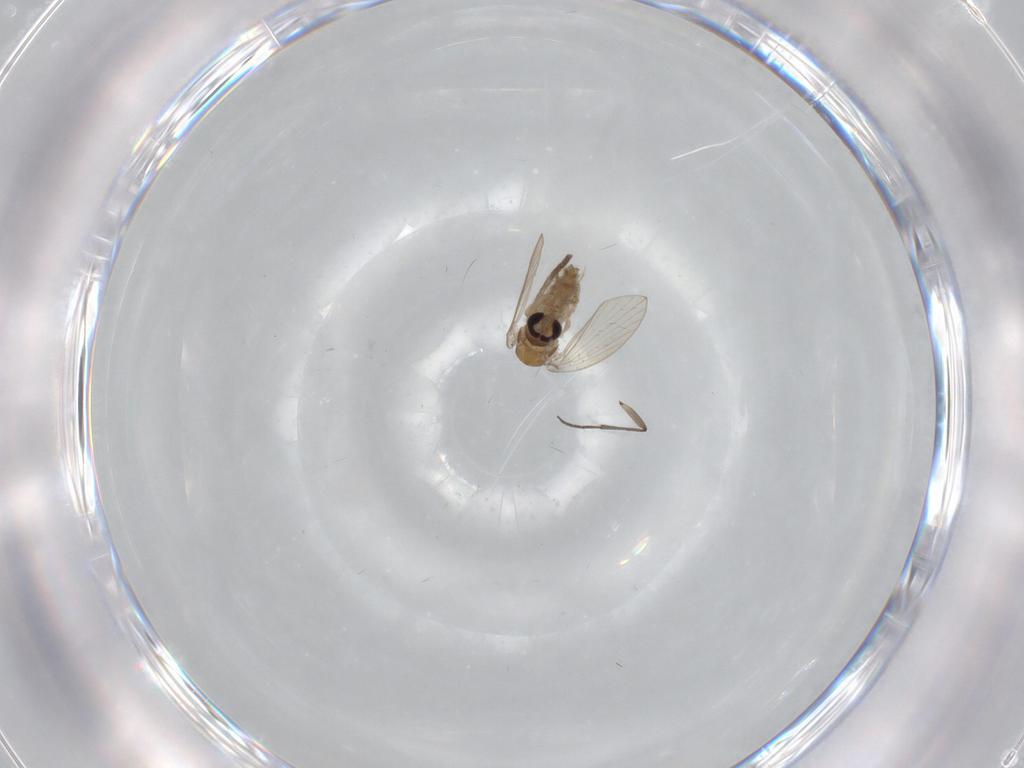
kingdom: Animalia
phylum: Arthropoda
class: Insecta
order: Diptera
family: Psychodidae
